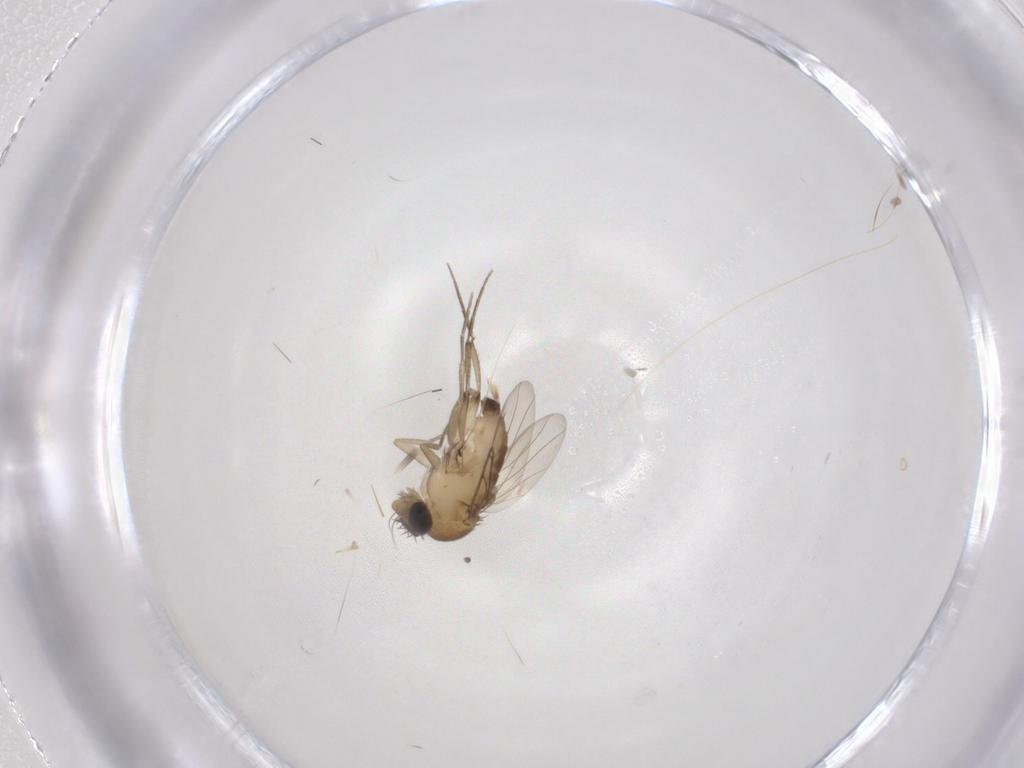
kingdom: Animalia
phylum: Arthropoda
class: Insecta
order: Diptera
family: Phoridae
